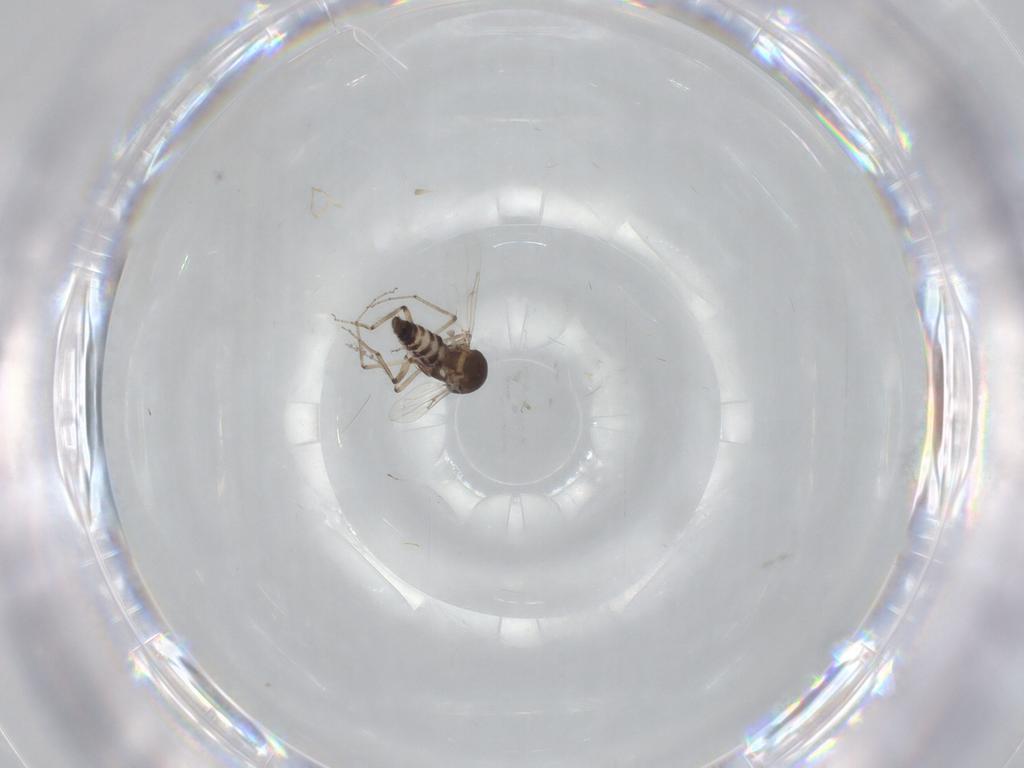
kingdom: Animalia
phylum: Arthropoda
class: Insecta
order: Diptera
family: Ceratopogonidae
